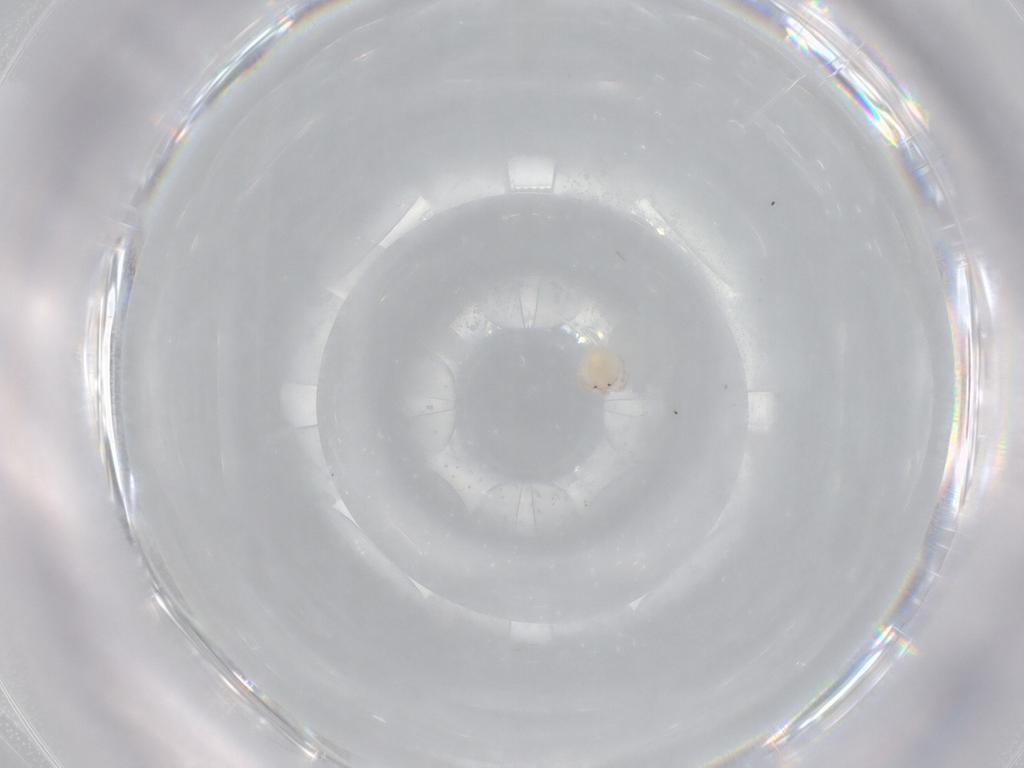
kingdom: Animalia
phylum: Arthropoda
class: Arachnida
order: Trombidiformes
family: Lebertiidae
